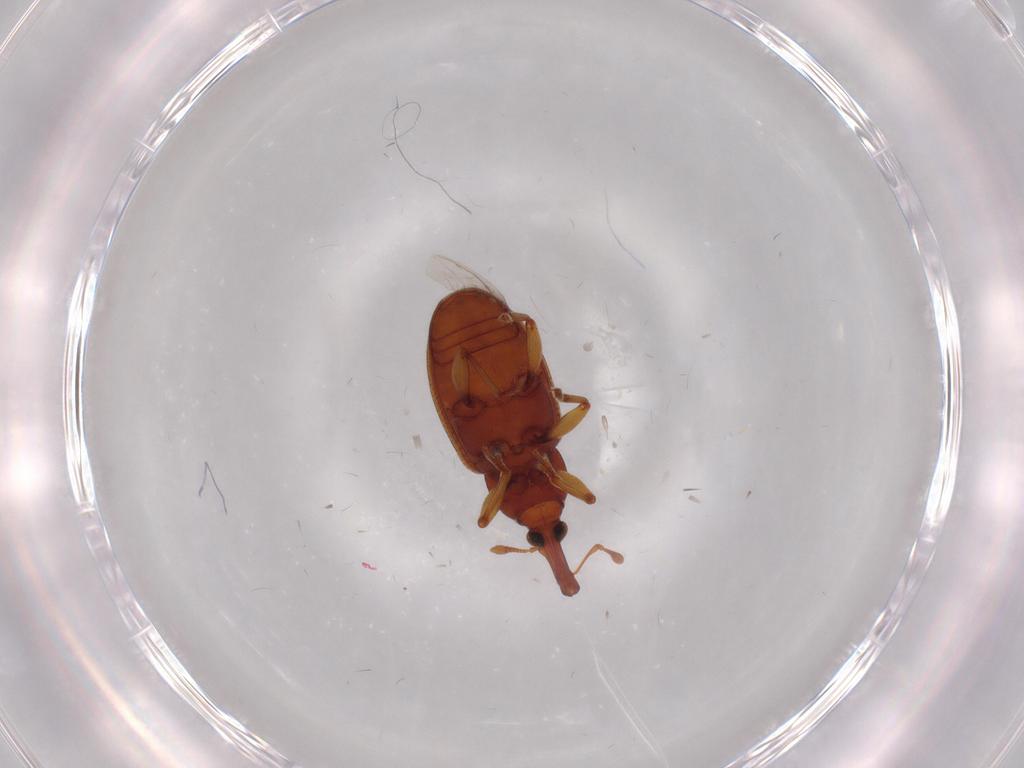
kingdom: Animalia
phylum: Arthropoda
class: Insecta
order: Coleoptera
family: Curculionidae
